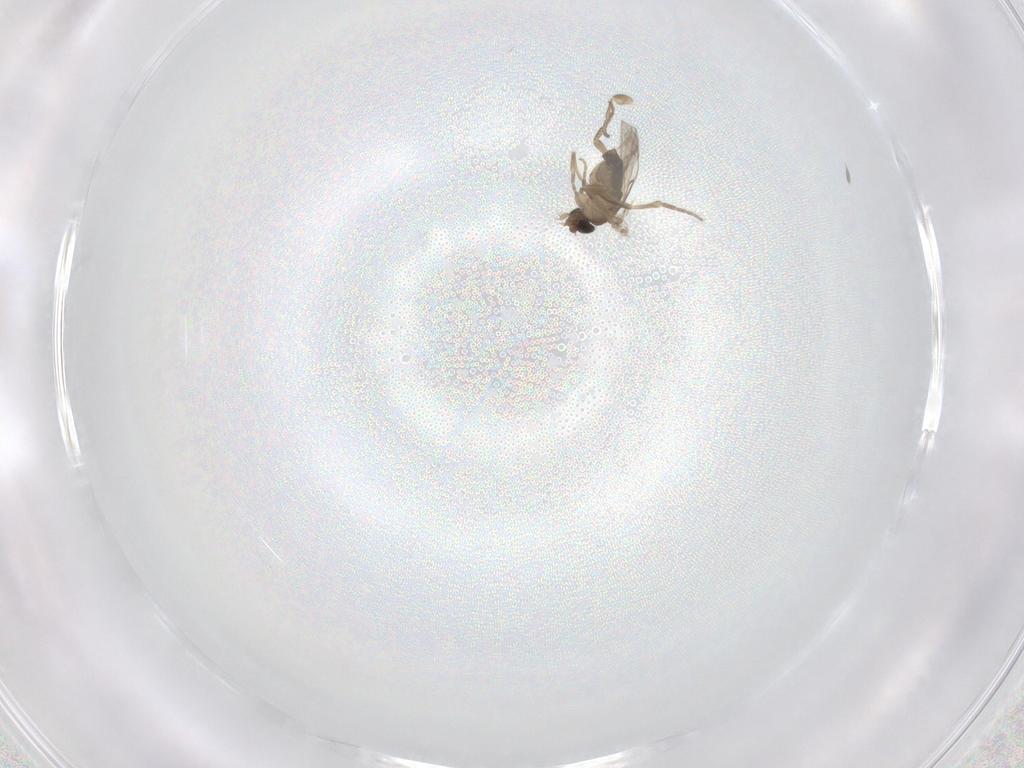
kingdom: Animalia
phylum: Arthropoda
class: Insecta
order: Diptera
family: Phoridae
